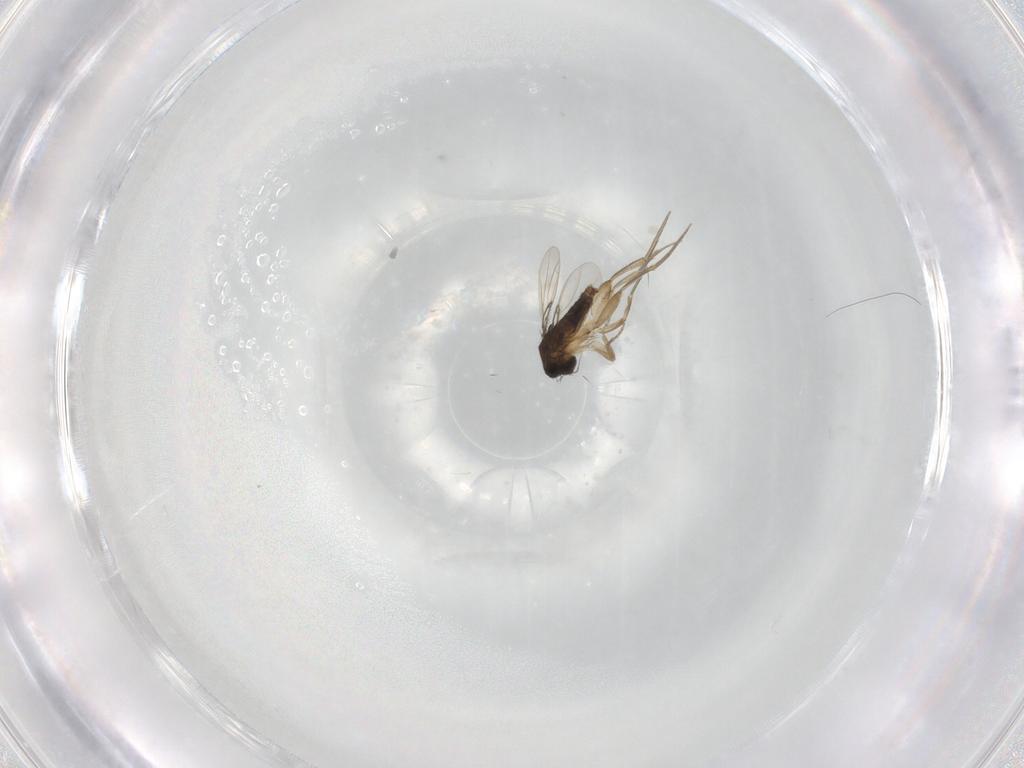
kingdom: Animalia
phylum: Arthropoda
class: Insecta
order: Diptera
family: Phoridae
